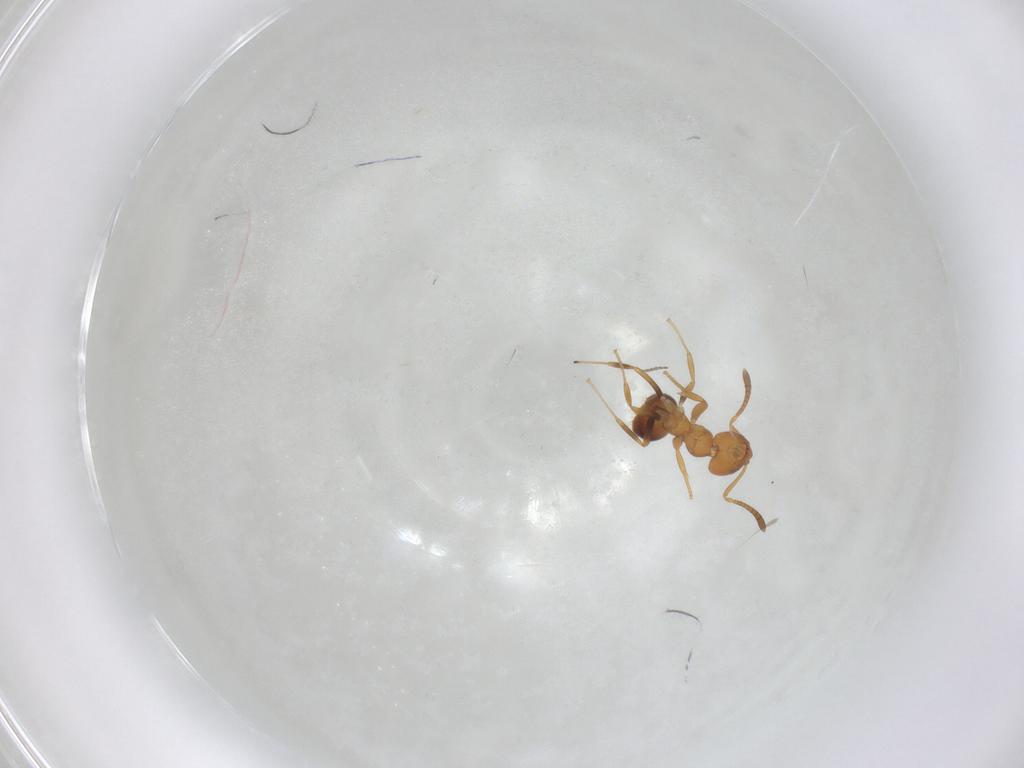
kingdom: Animalia
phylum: Arthropoda
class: Insecta
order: Hymenoptera
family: Formicidae
